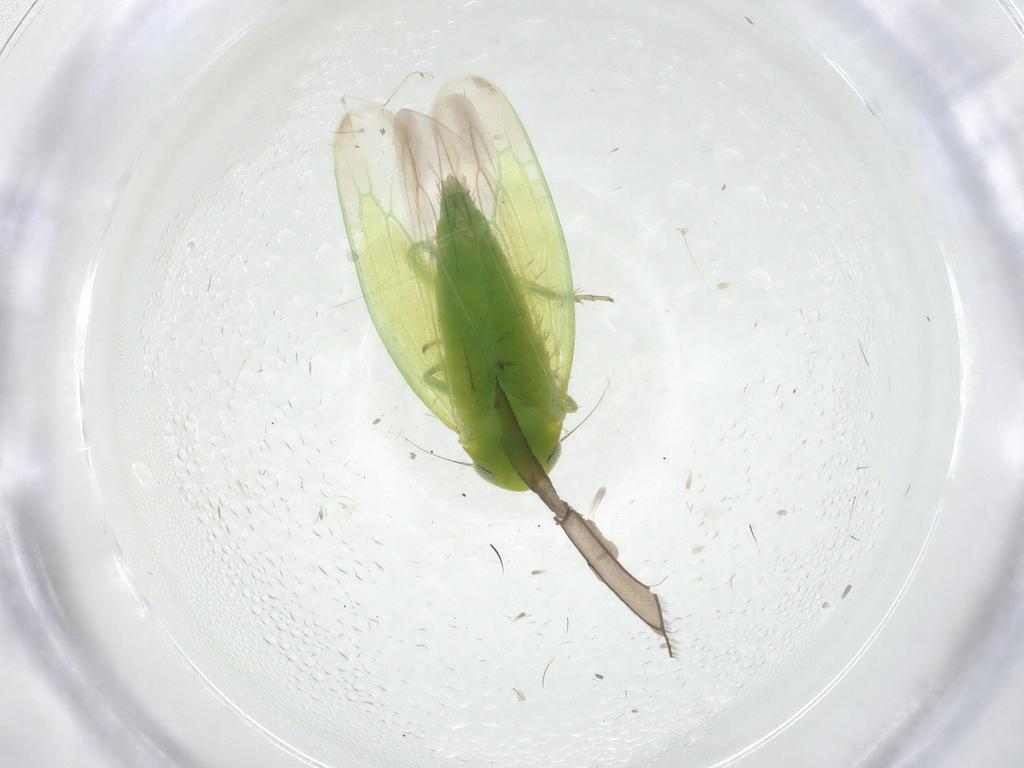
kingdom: Animalia
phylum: Arthropoda
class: Insecta
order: Hemiptera
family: Cicadellidae
